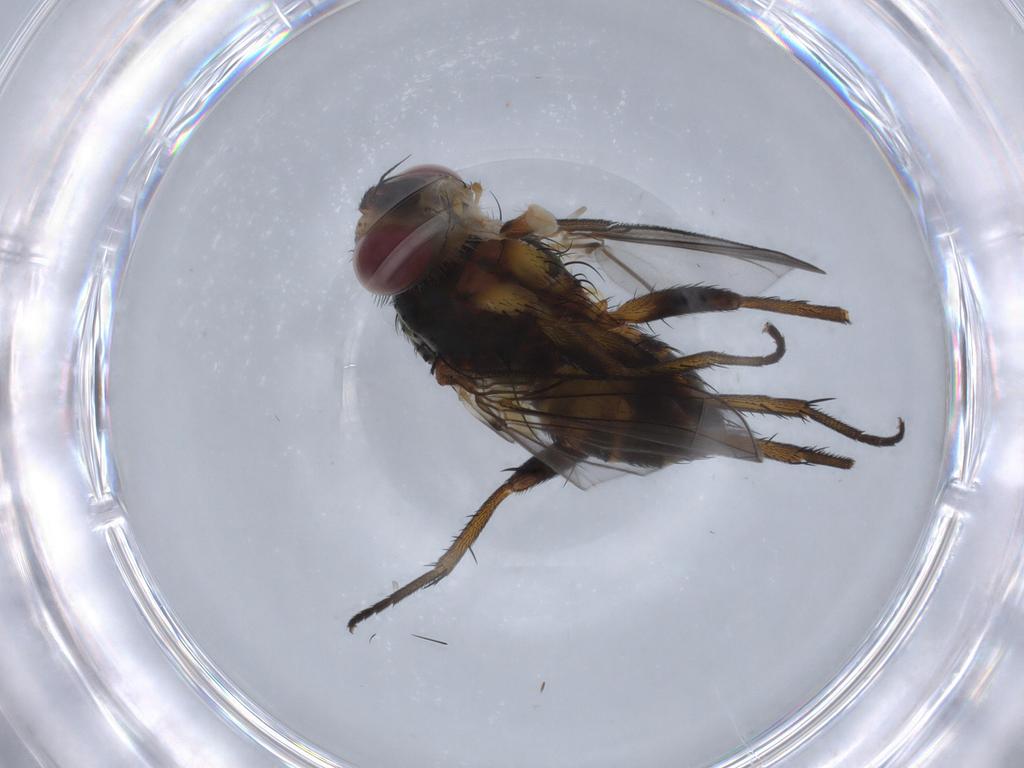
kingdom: Animalia
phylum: Arthropoda
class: Insecta
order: Diptera
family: Tachinidae
